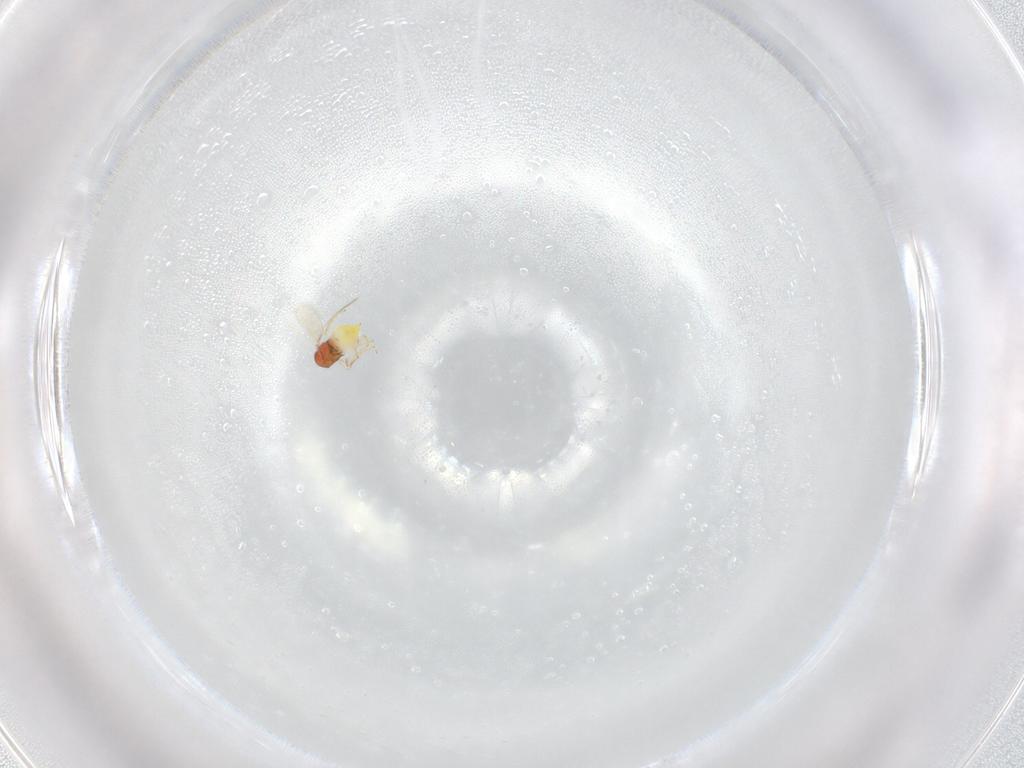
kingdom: Animalia
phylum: Arthropoda
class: Insecta
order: Hymenoptera
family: Aphelinidae
